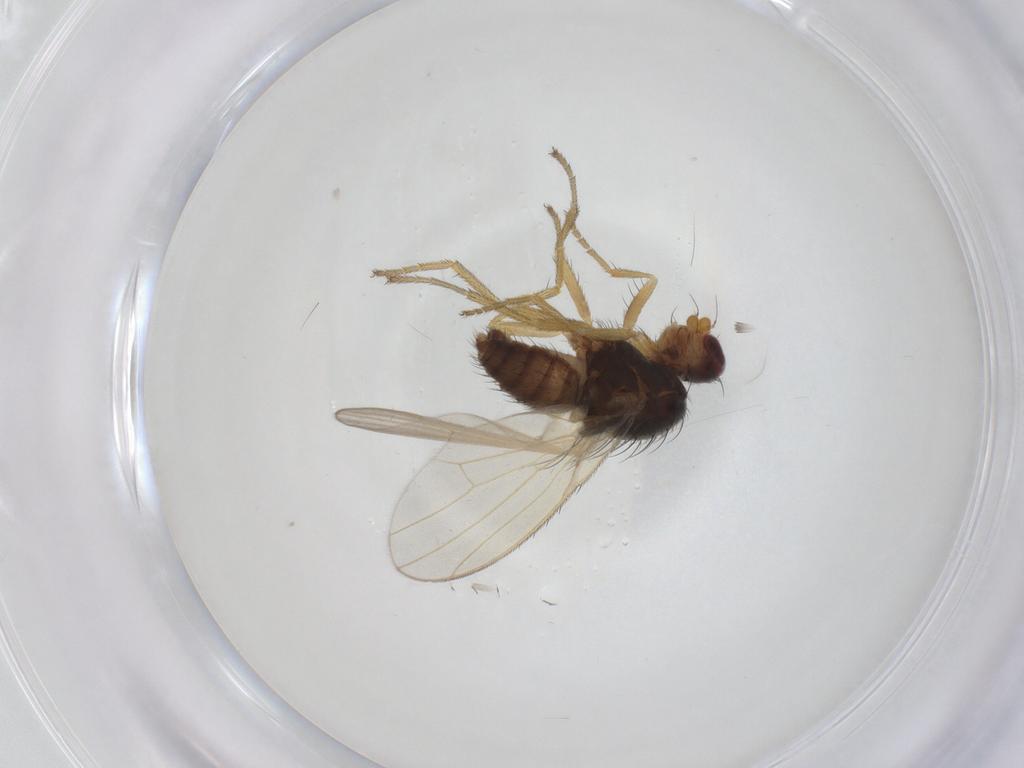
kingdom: Animalia
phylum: Arthropoda
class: Insecta
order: Diptera
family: Heleomyzidae
